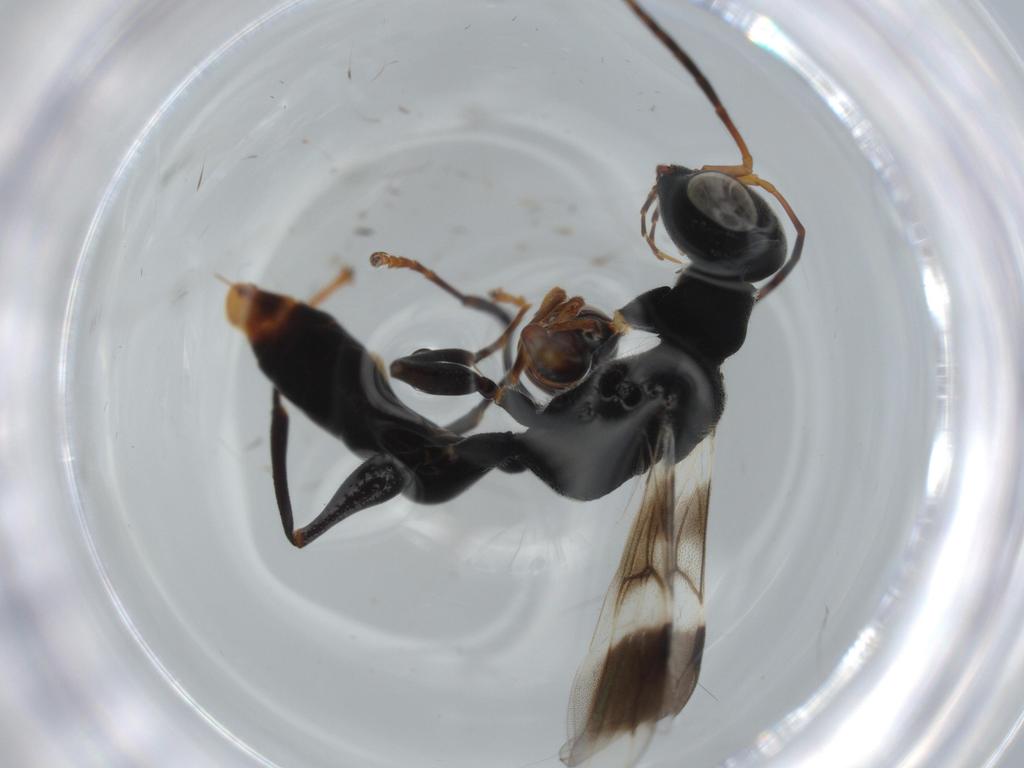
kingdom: Animalia
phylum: Arthropoda
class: Insecta
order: Hymenoptera
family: Dryinidae
